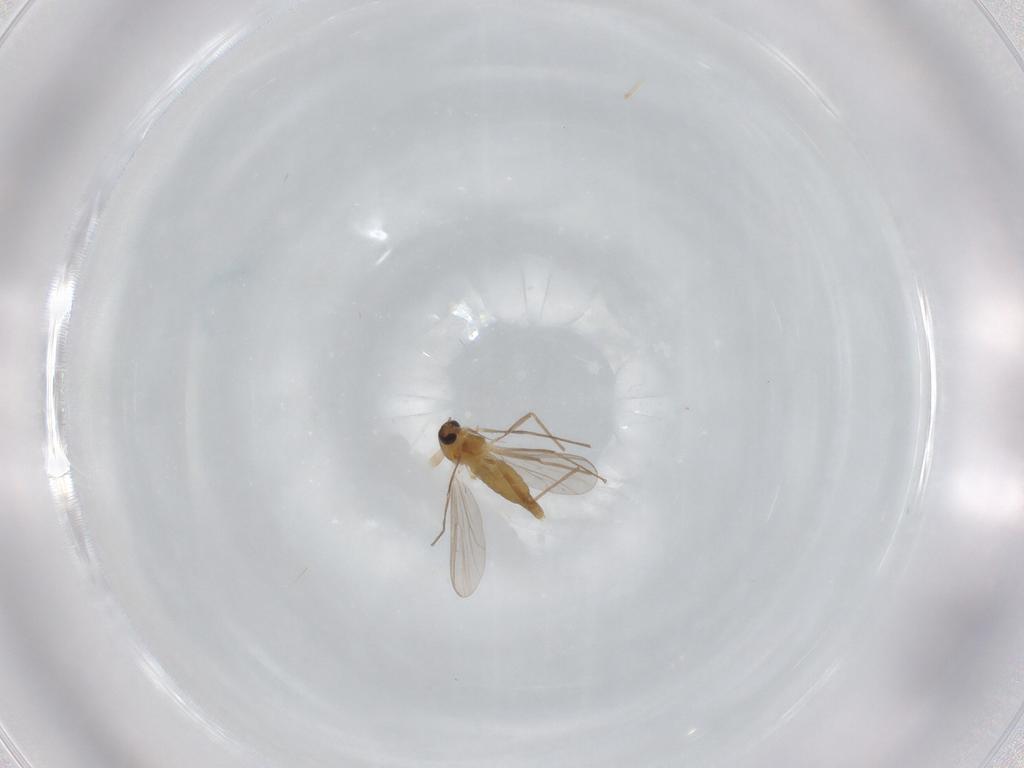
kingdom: Animalia
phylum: Arthropoda
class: Insecta
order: Diptera
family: Chironomidae
